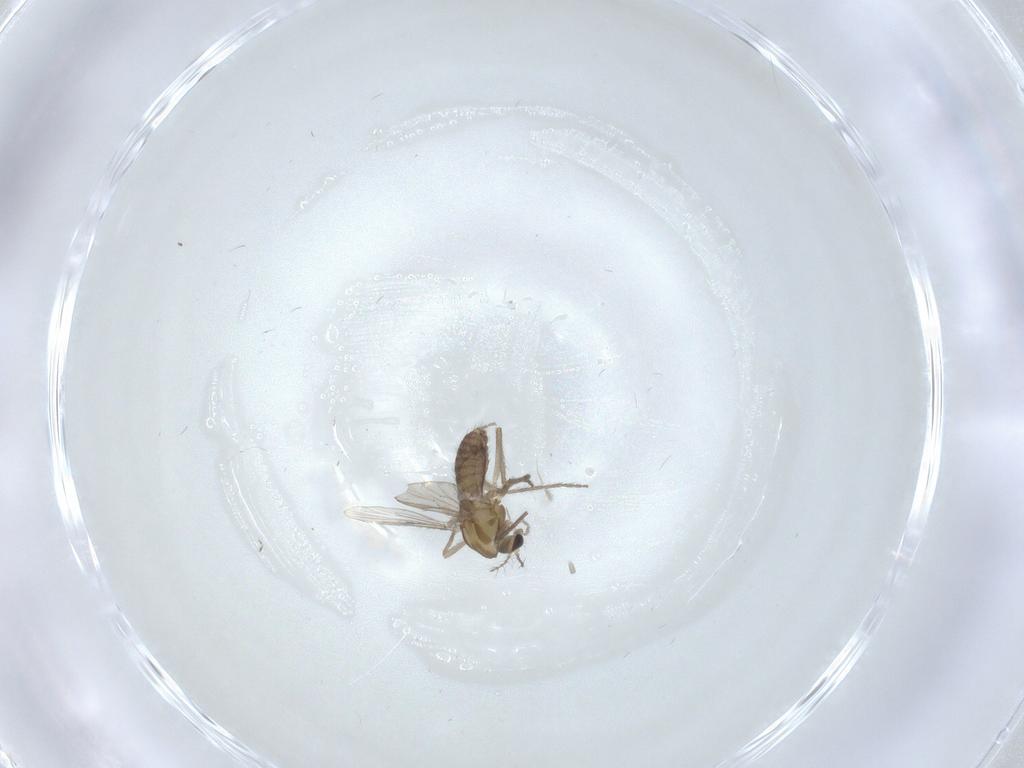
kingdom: Animalia
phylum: Arthropoda
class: Insecta
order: Diptera
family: Chironomidae
